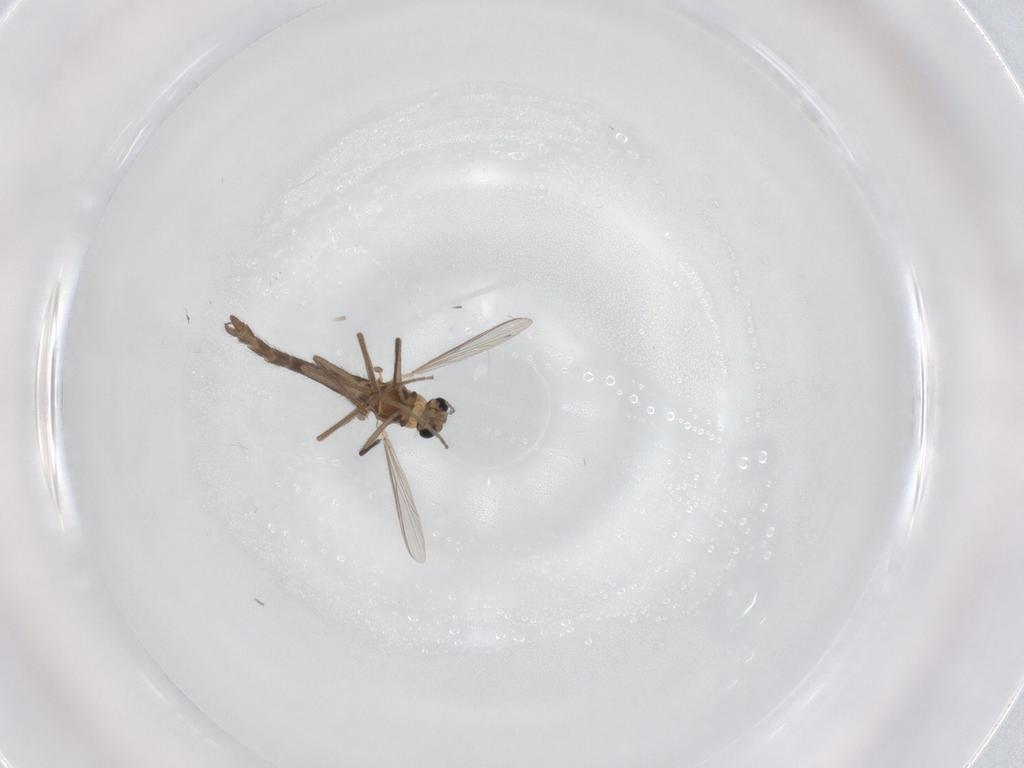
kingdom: Animalia
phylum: Arthropoda
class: Insecta
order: Diptera
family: Chironomidae
